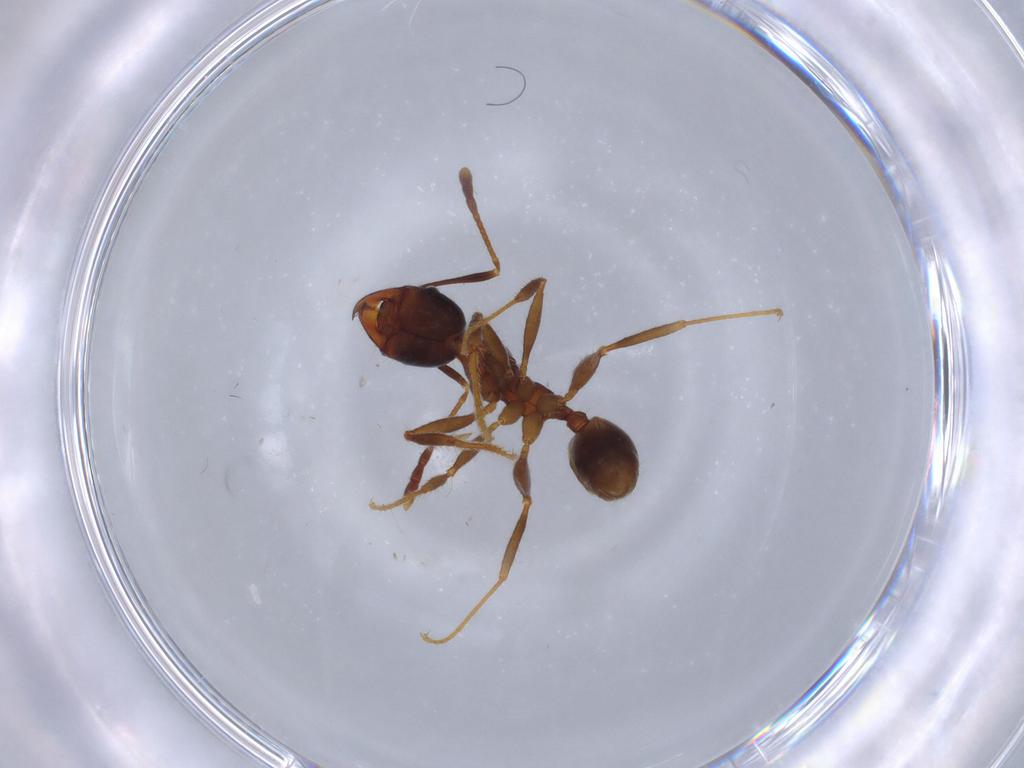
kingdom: Animalia
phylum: Arthropoda
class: Insecta
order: Hymenoptera
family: Formicidae
